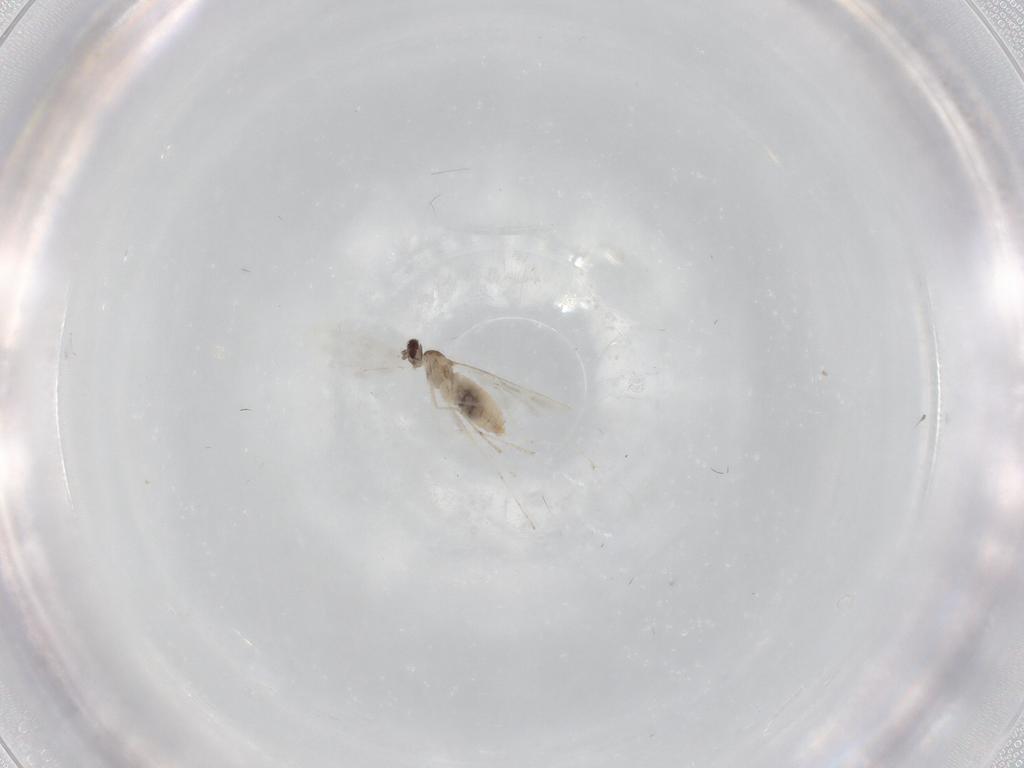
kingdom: Animalia
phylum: Arthropoda
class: Insecta
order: Diptera
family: Cecidomyiidae
